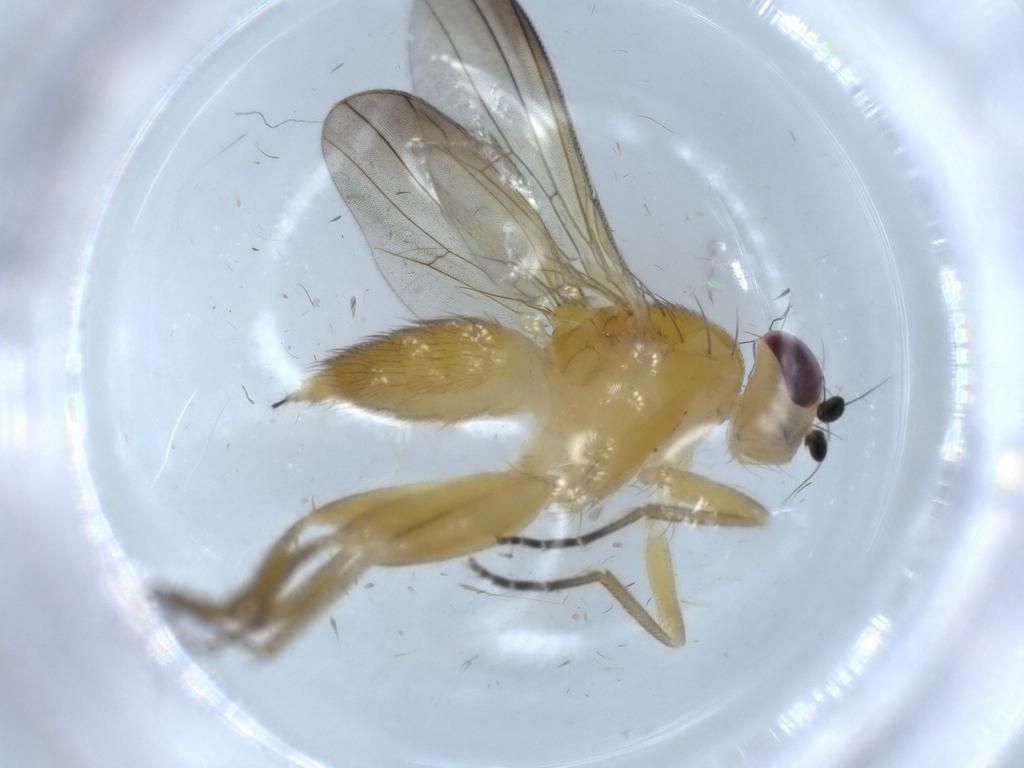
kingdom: Animalia
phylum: Arthropoda
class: Insecta
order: Diptera
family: Clusiidae
